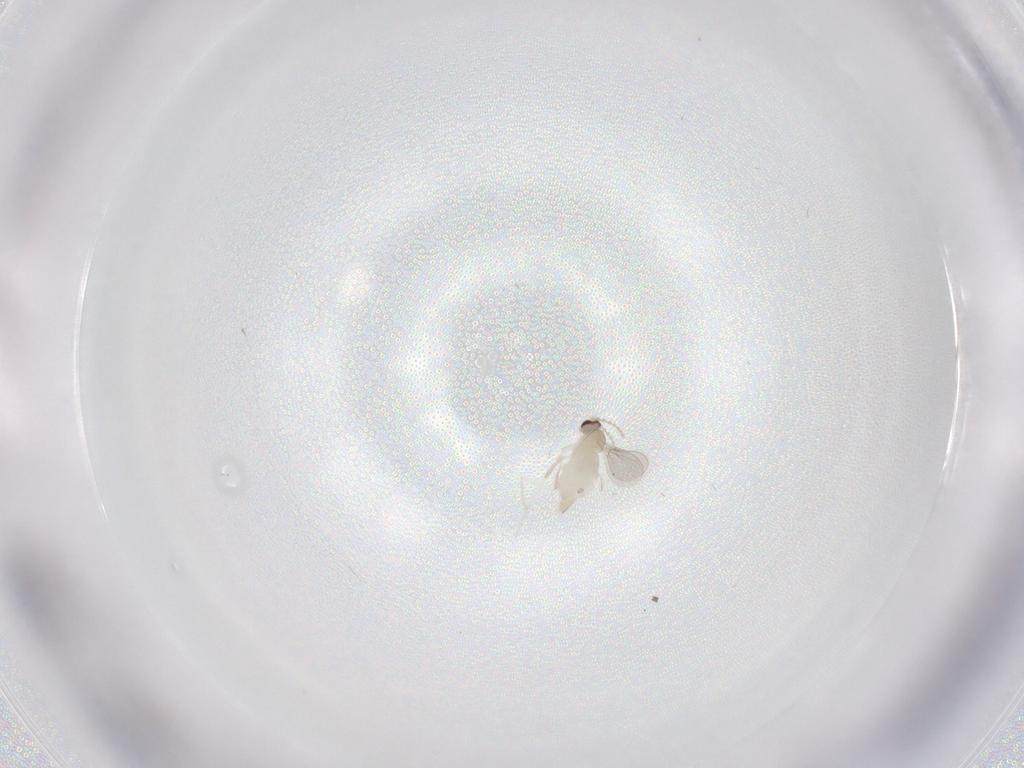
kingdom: Animalia
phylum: Arthropoda
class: Insecta
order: Diptera
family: Cecidomyiidae
